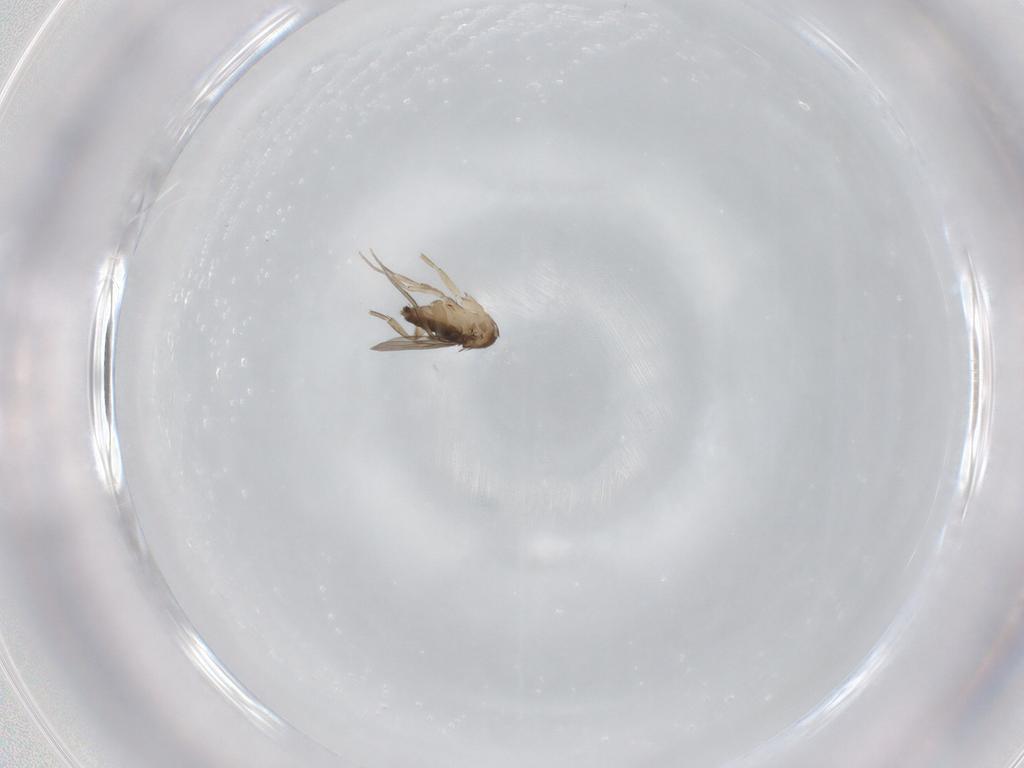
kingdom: Animalia
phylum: Arthropoda
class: Insecta
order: Diptera
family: Phoridae
